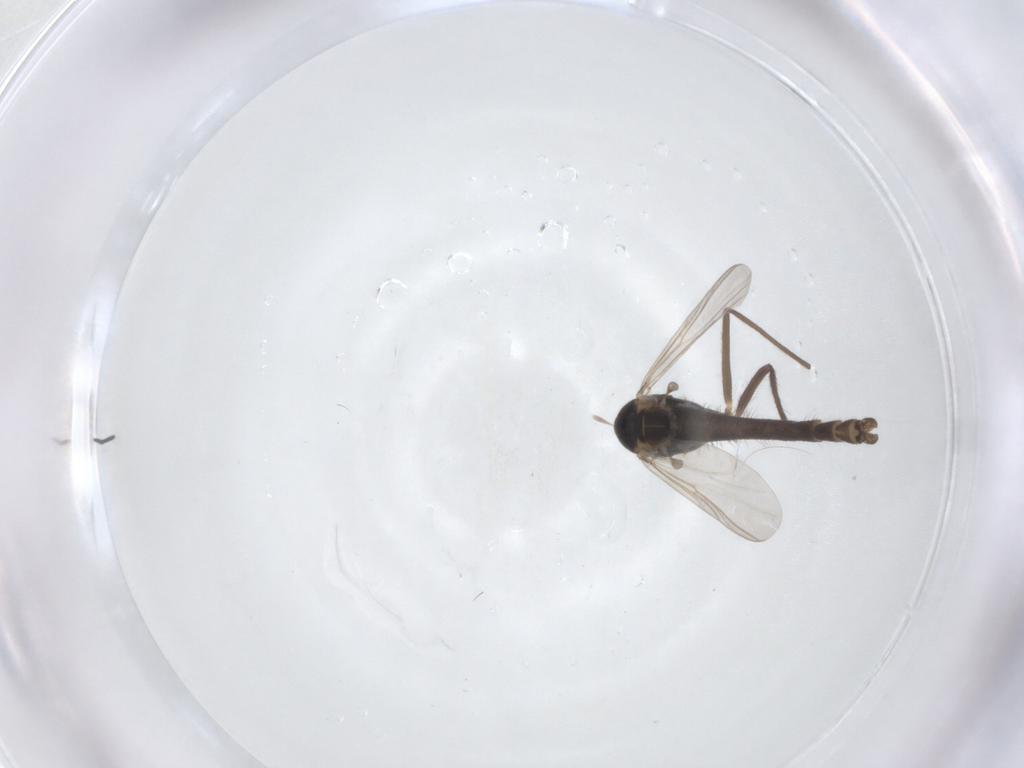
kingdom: Animalia
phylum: Arthropoda
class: Insecta
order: Diptera
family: Chironomidae
